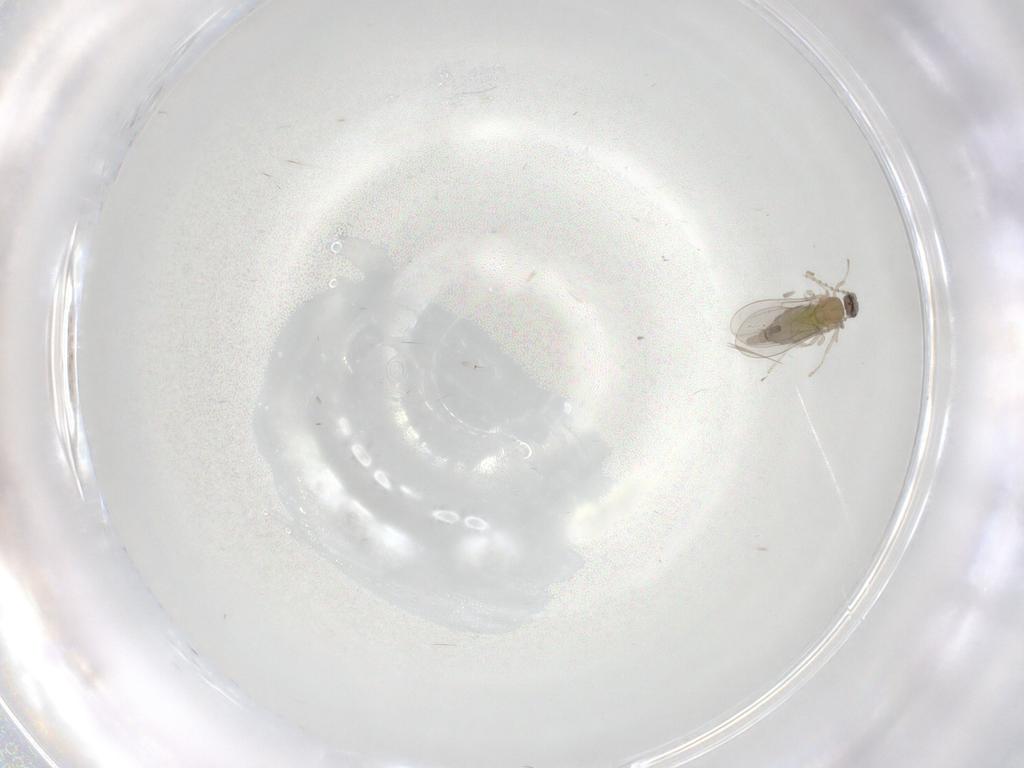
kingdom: Animalia
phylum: Arthropoda
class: Insecta
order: Diptera
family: Cecidomyiidae
